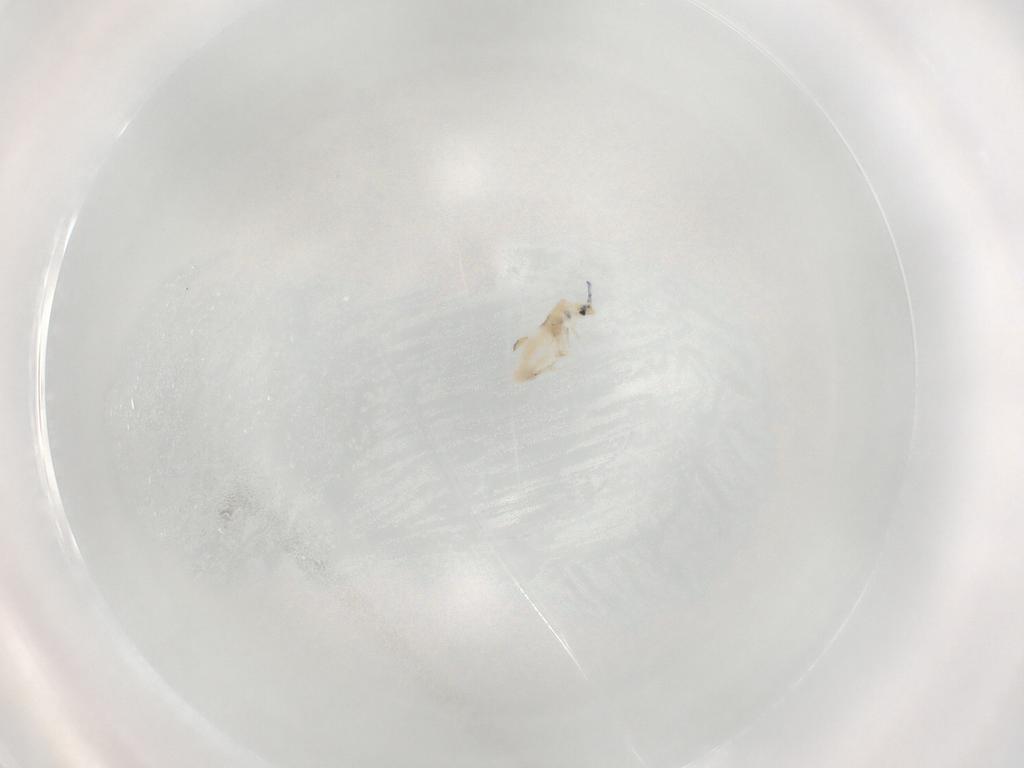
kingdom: Animalia
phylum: Arthropoda
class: Collembola
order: Entomobryomorpha
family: Entomobryidae
